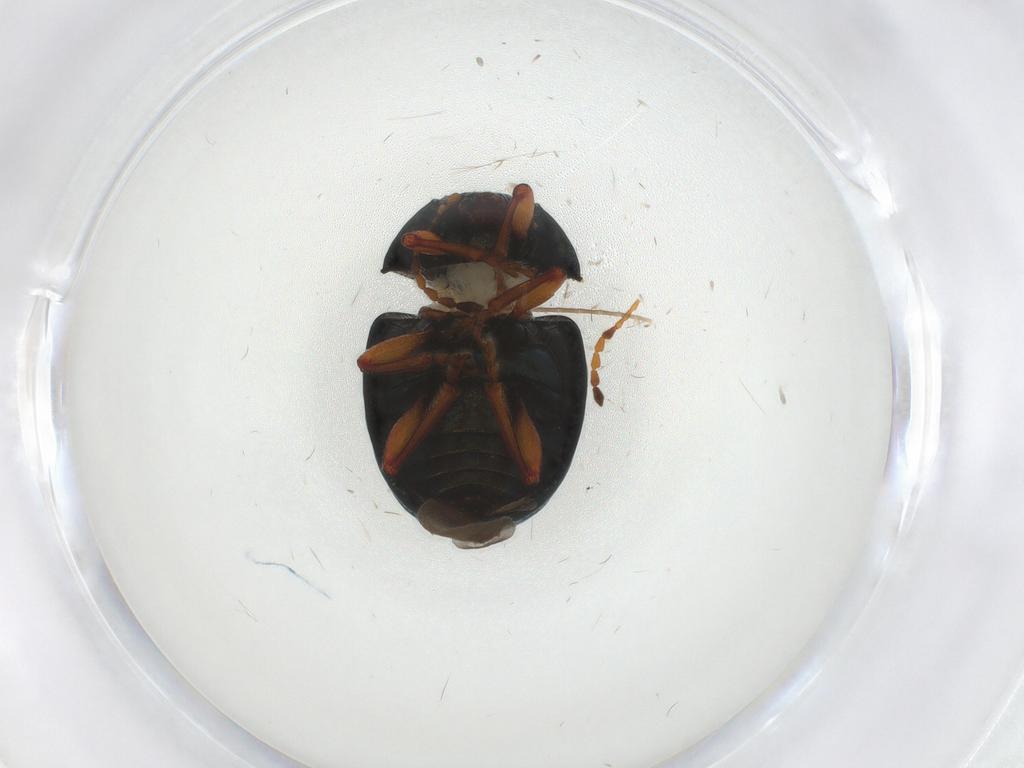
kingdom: Animalia
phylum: Arthropoda
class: Insecta
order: Coleoptera
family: Chrysomelidae
